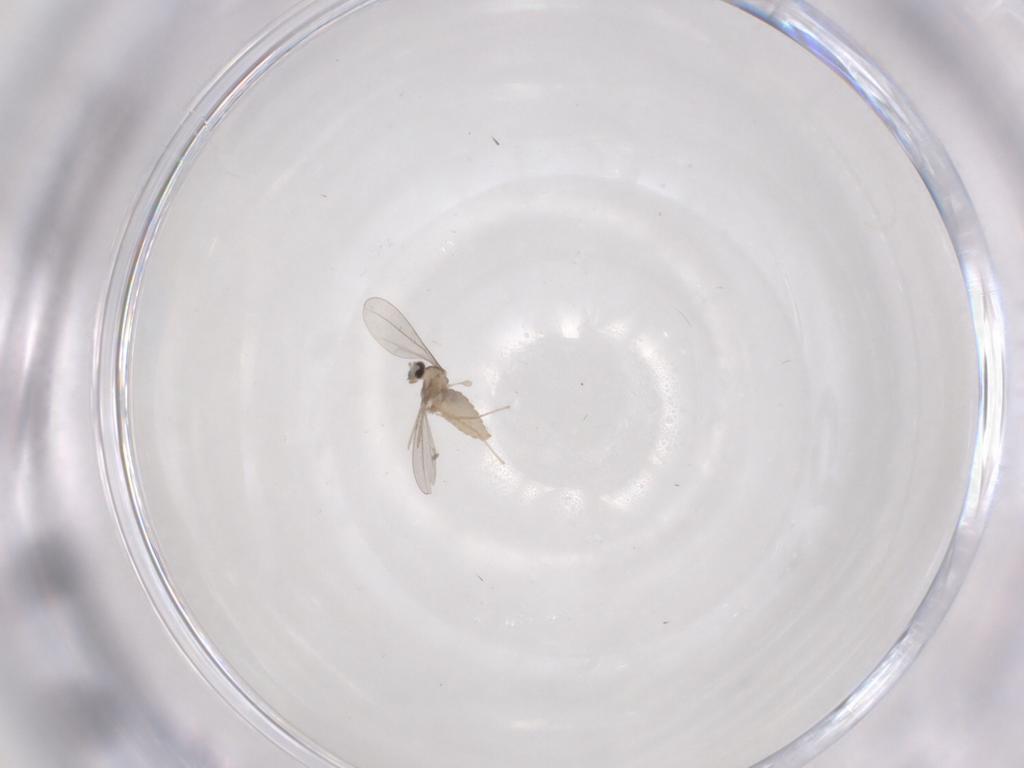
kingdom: Animalia
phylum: Arthropoda
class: Insecta
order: Diptera
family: Cecidomyiidae
